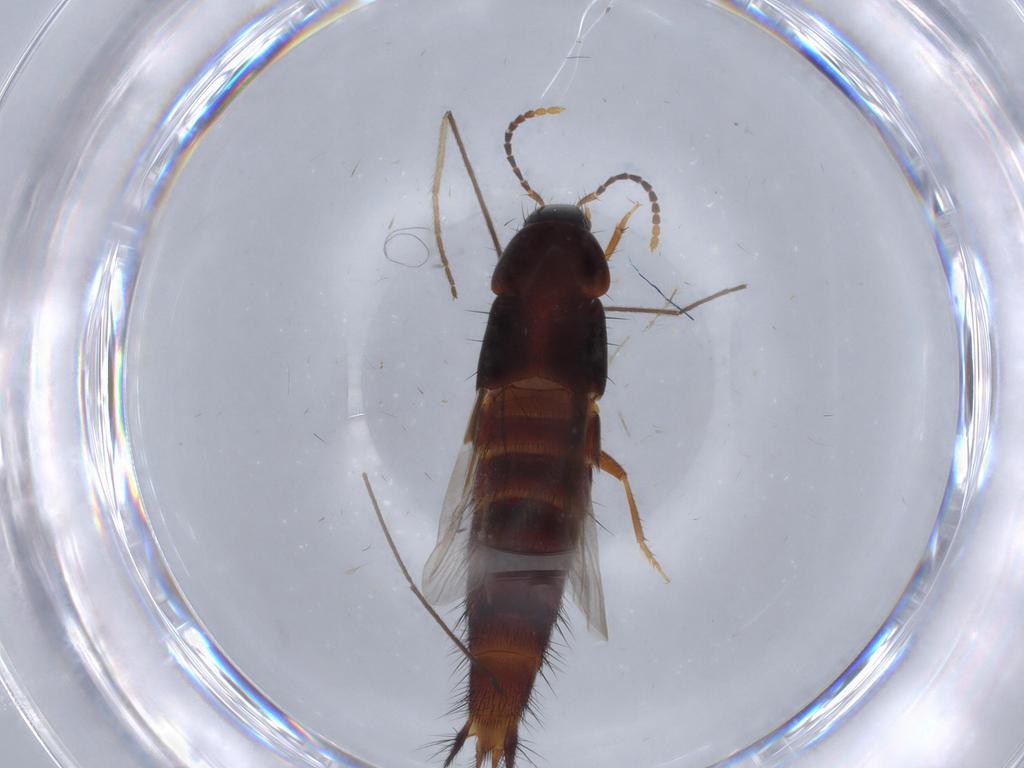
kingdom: Animalia
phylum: Arthropoda
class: Insecta
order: Coleoptera
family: Staphylinidae
